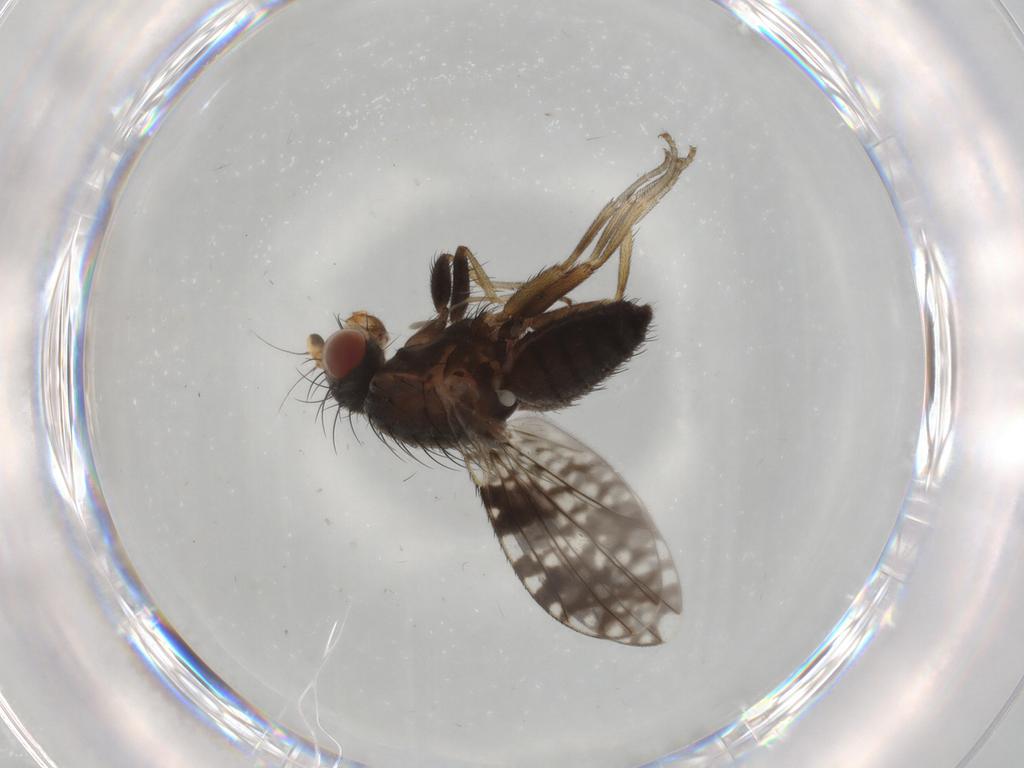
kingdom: Animalia
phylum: Arthropoda
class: Insecta
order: Diptera
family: Tephritidae
